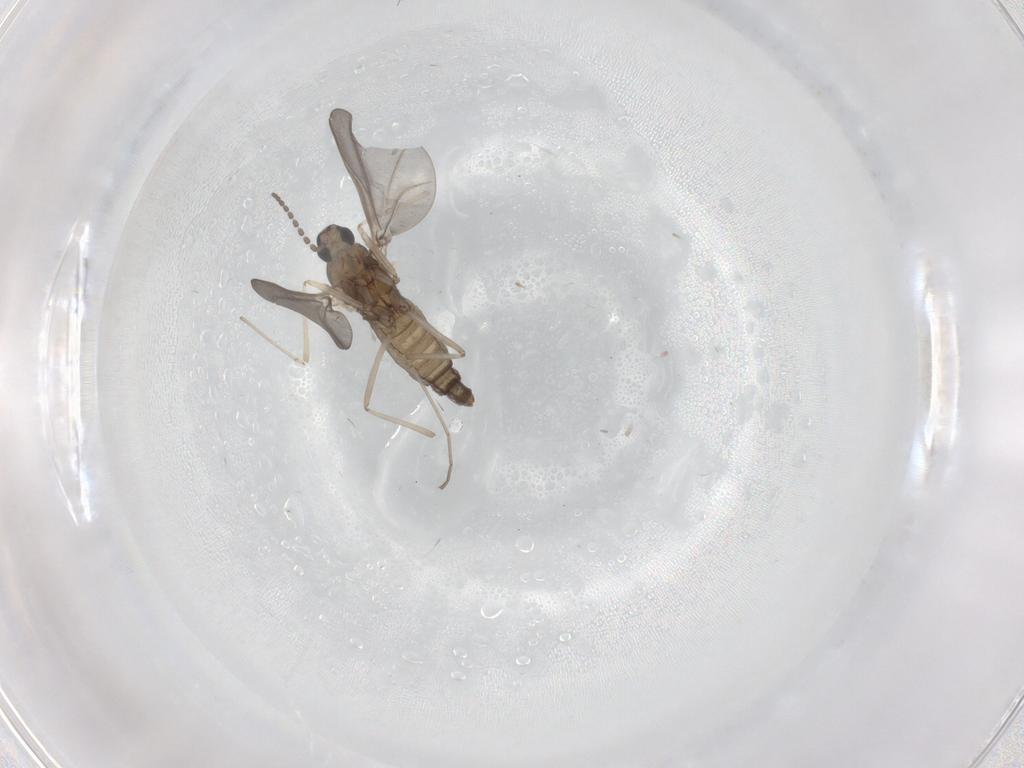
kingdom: Animalia
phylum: Arthropoda
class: Insecta
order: Diptera
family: Cecidomyiidae
